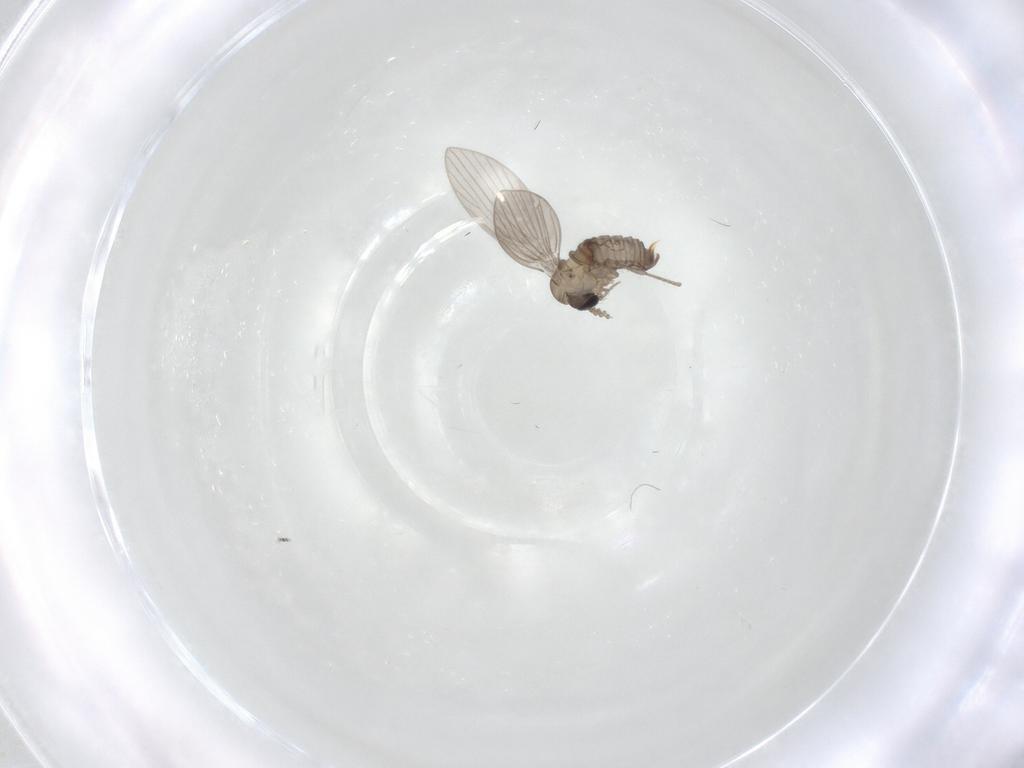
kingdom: Animalia
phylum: Arthropoda
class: Insecta
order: Diptera
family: Psychodidae
